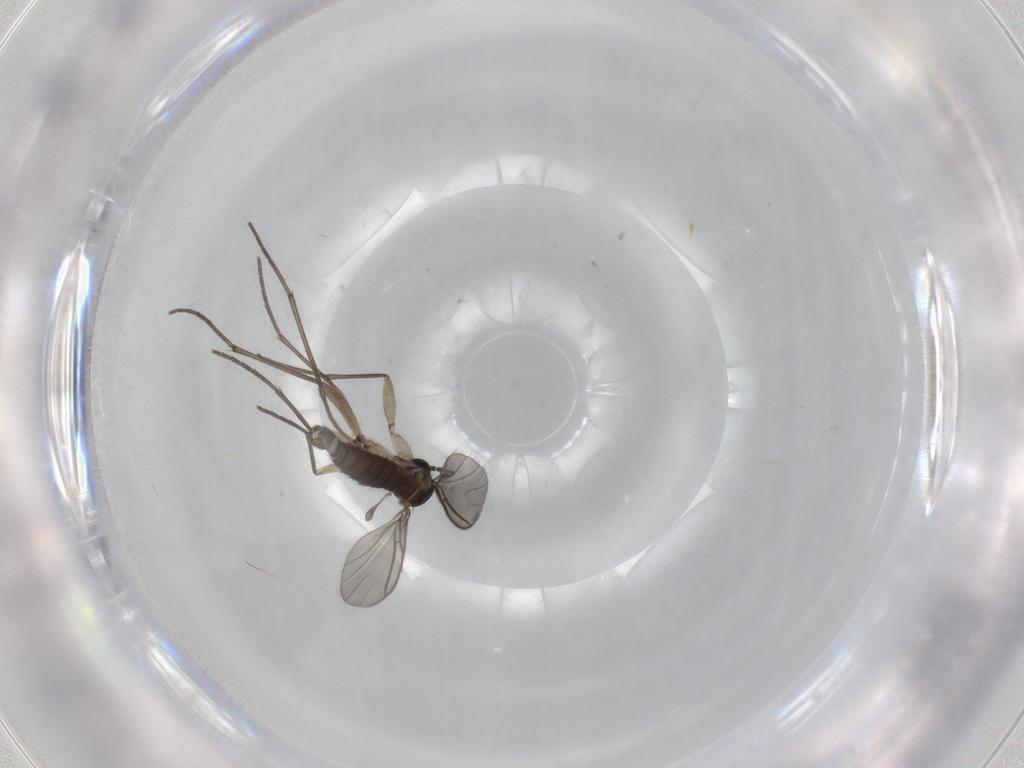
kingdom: Animalia
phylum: Arthropoda
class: Insecta
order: Diptera
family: Sciaridae
